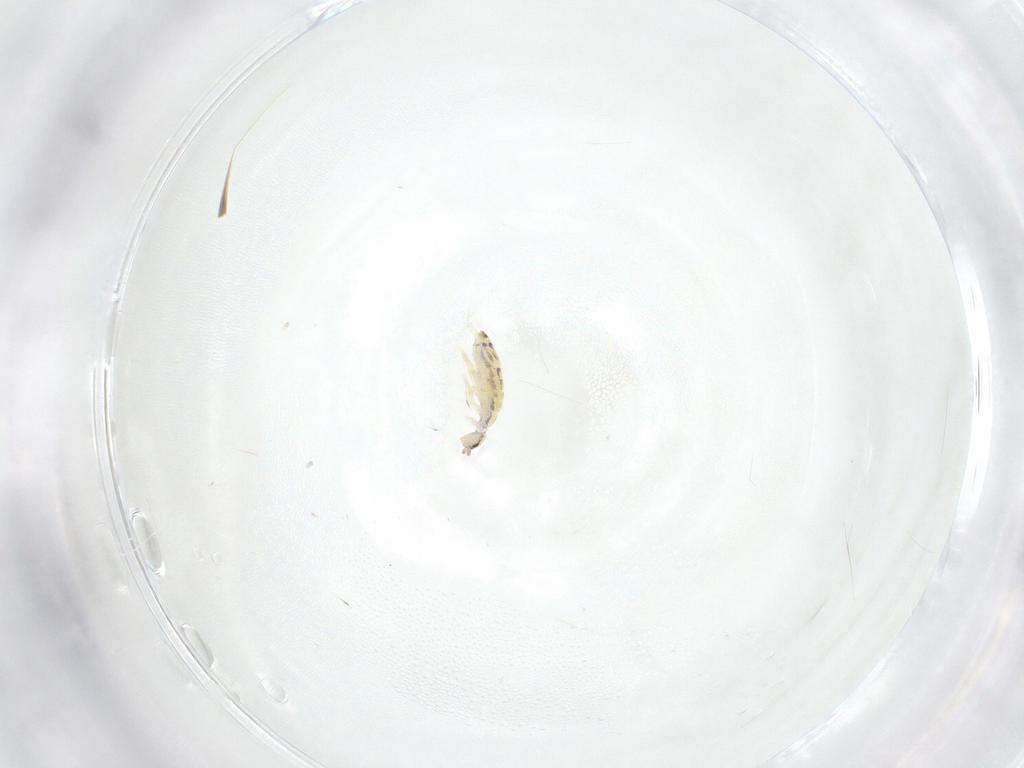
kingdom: Animalia
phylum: Arthropoda
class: Collembola
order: Entomobryomorpha
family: Entomobryidae
